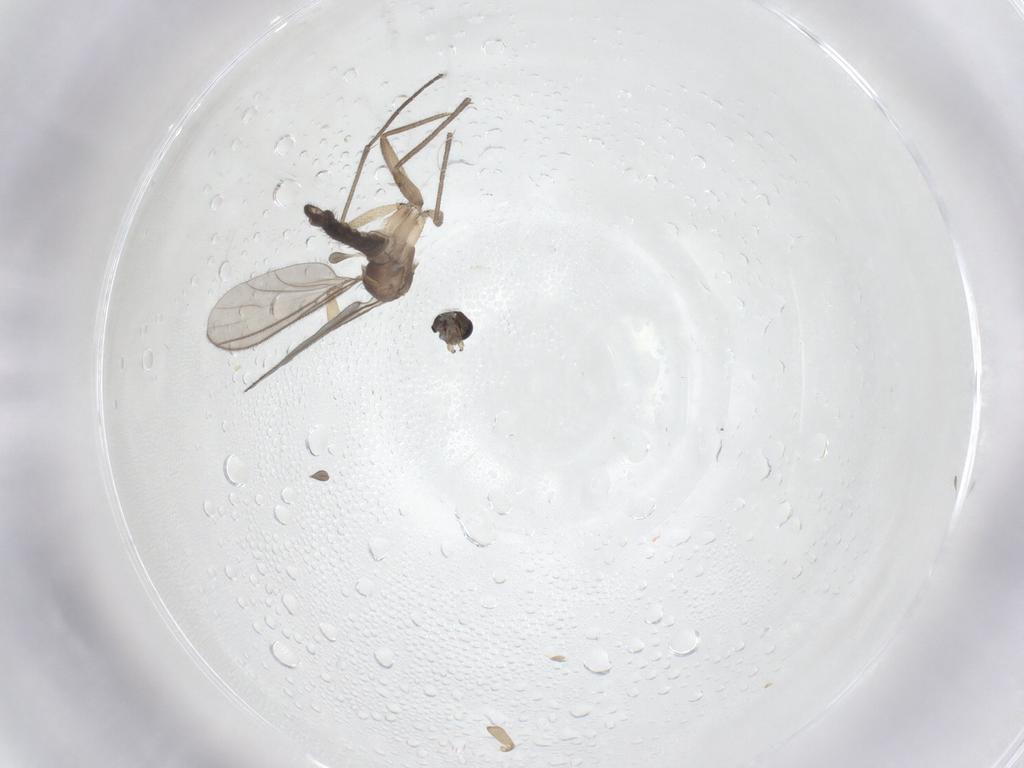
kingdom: Animalia
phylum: Arthropoda
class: Insecta
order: Diptera
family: Sciaridae
